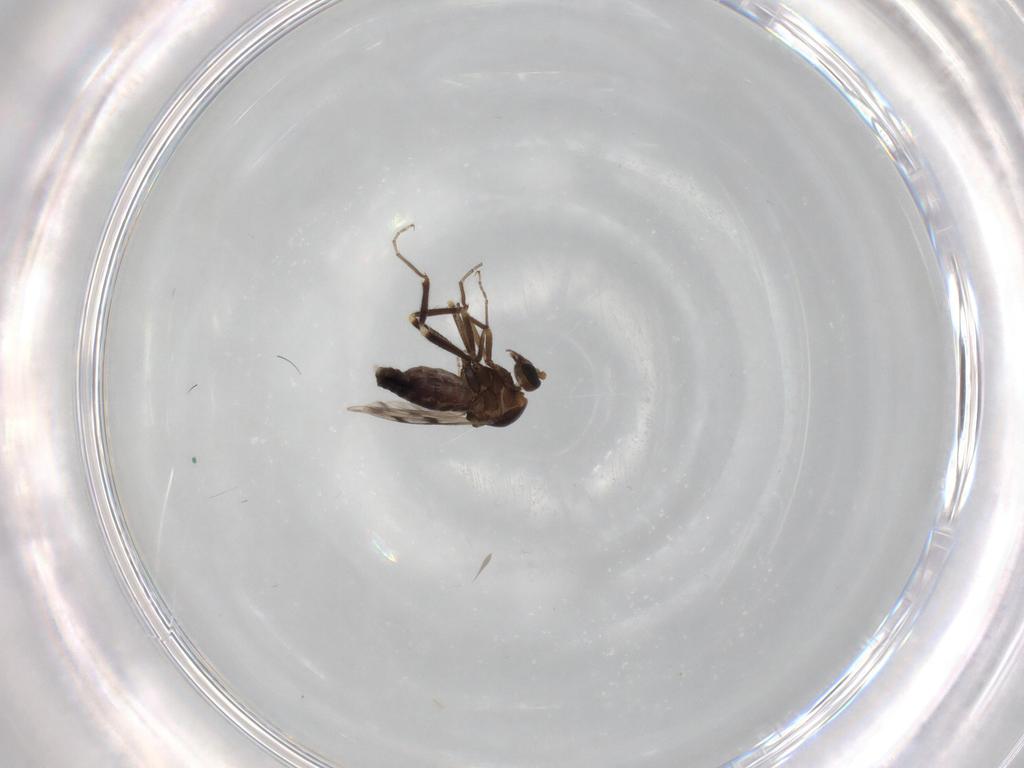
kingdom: Animalia
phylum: Arthropoda
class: Insecta
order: Diptera
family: Ceratopogonidae
